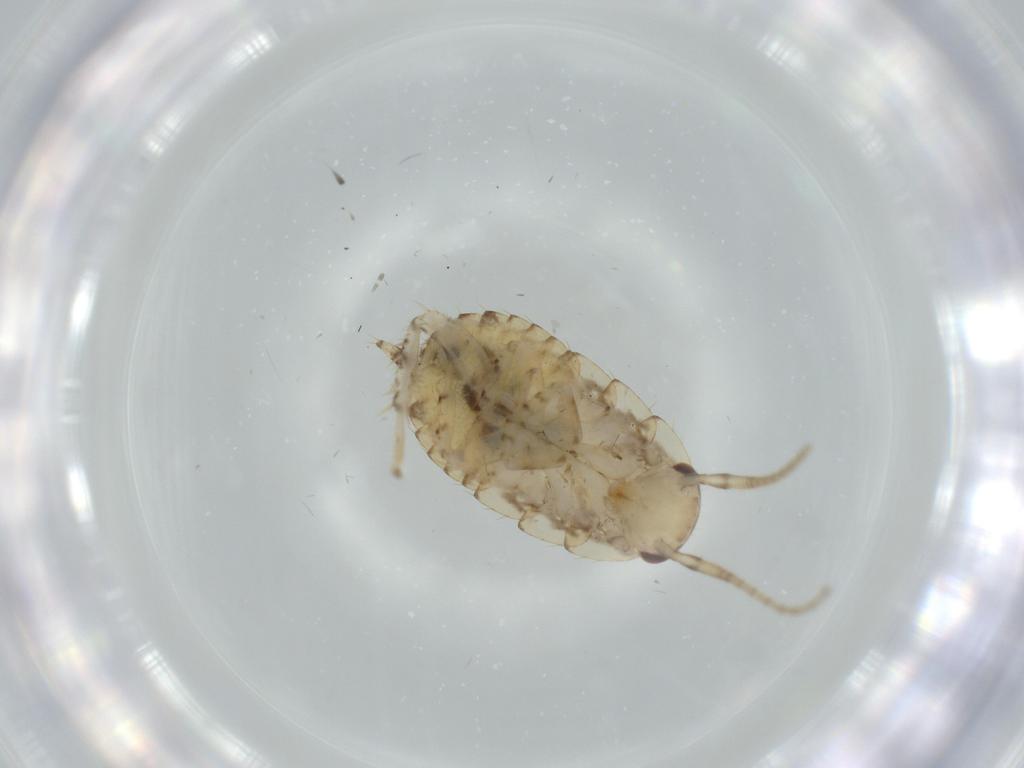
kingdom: Animalia
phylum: Arthropoda
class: Insecta
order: Blattodea
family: Ectobiidae
